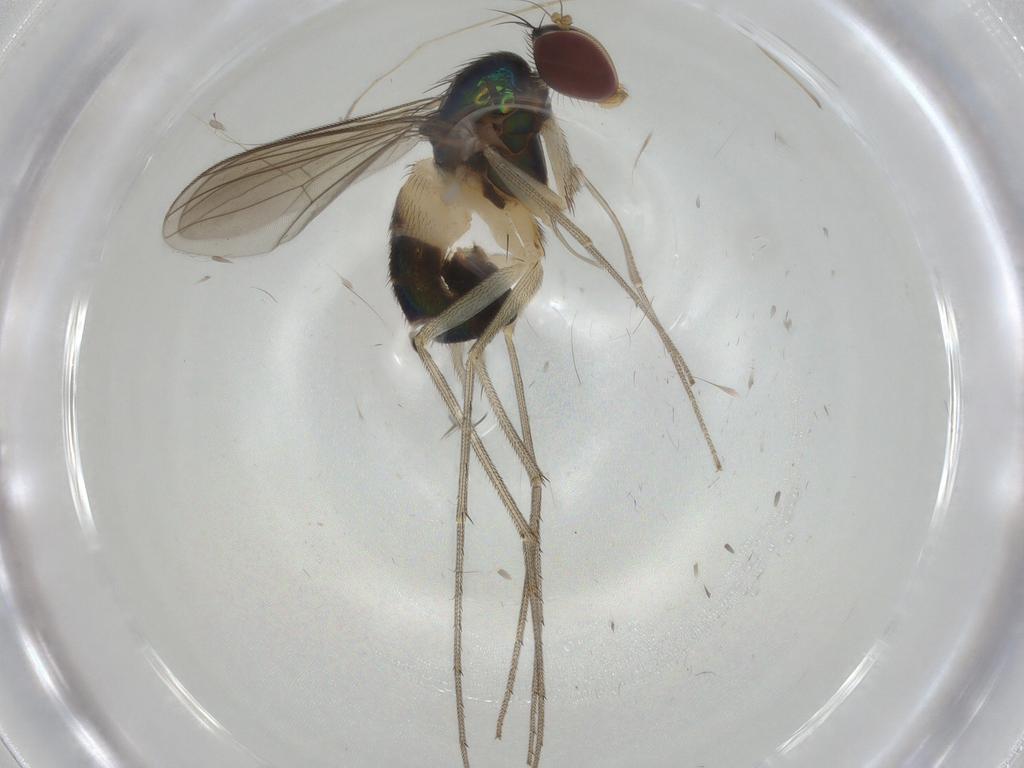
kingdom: Animalia
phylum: Arthropoda
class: Insecta
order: Diptera
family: Dolichopodidae
